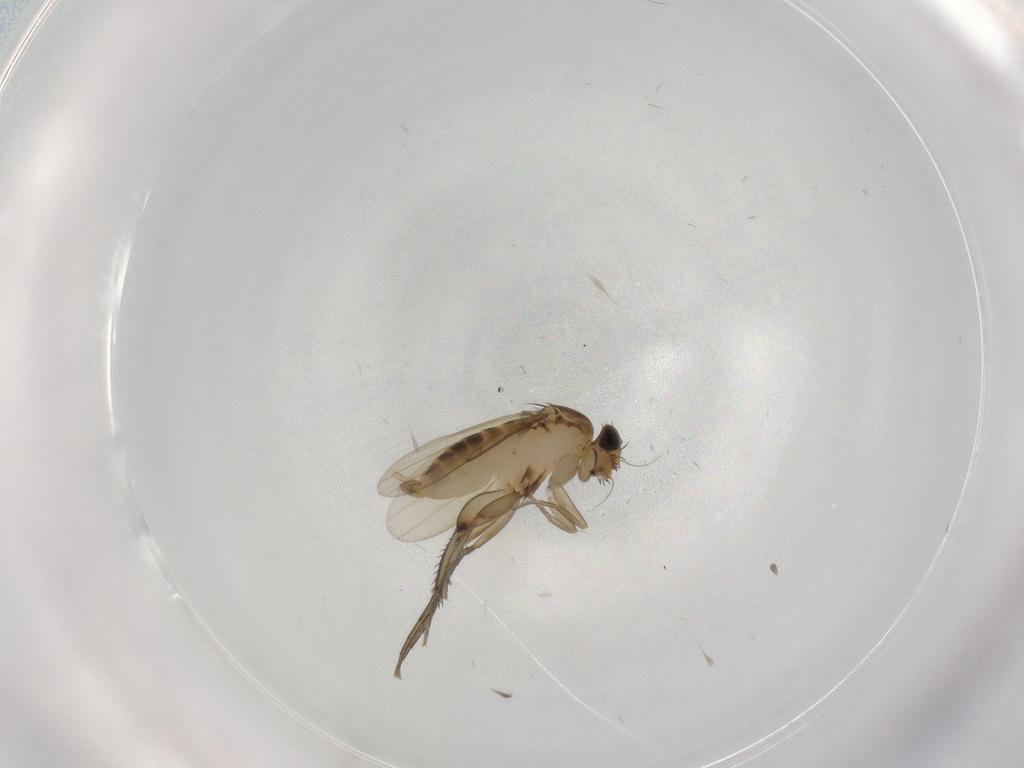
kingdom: Animalia
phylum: Arthropoda
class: Insecta
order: Diptera
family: Phoridae
